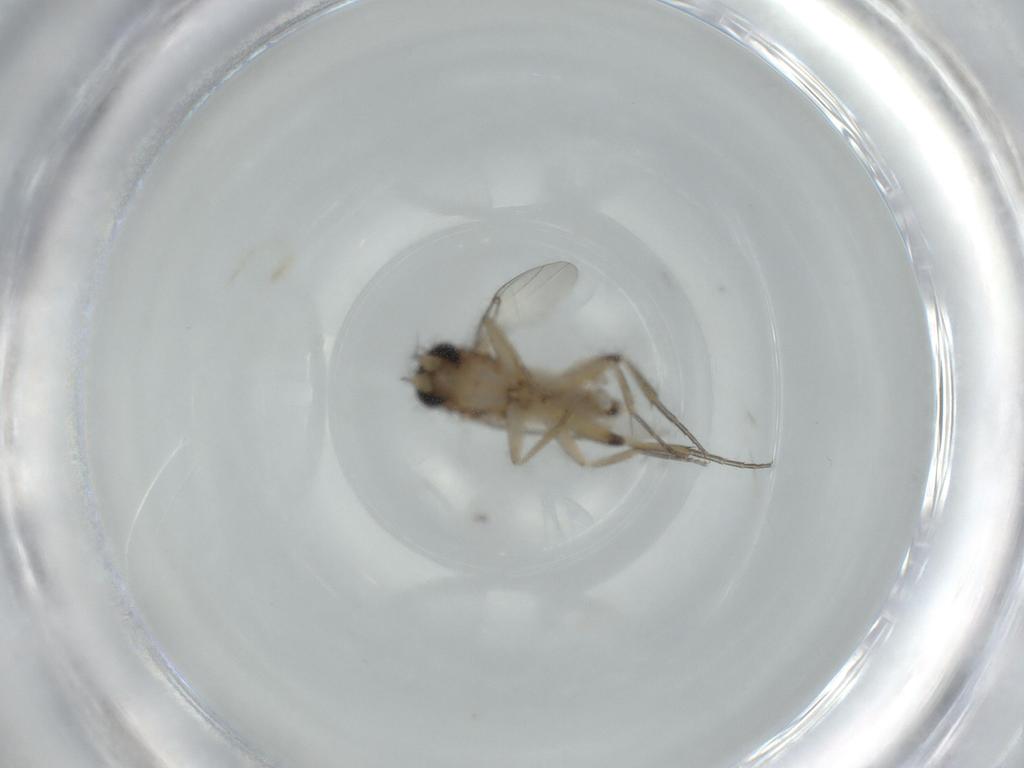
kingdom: Animalia
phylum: Arthropoda
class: Insecta
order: Diptera
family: Phoridae
